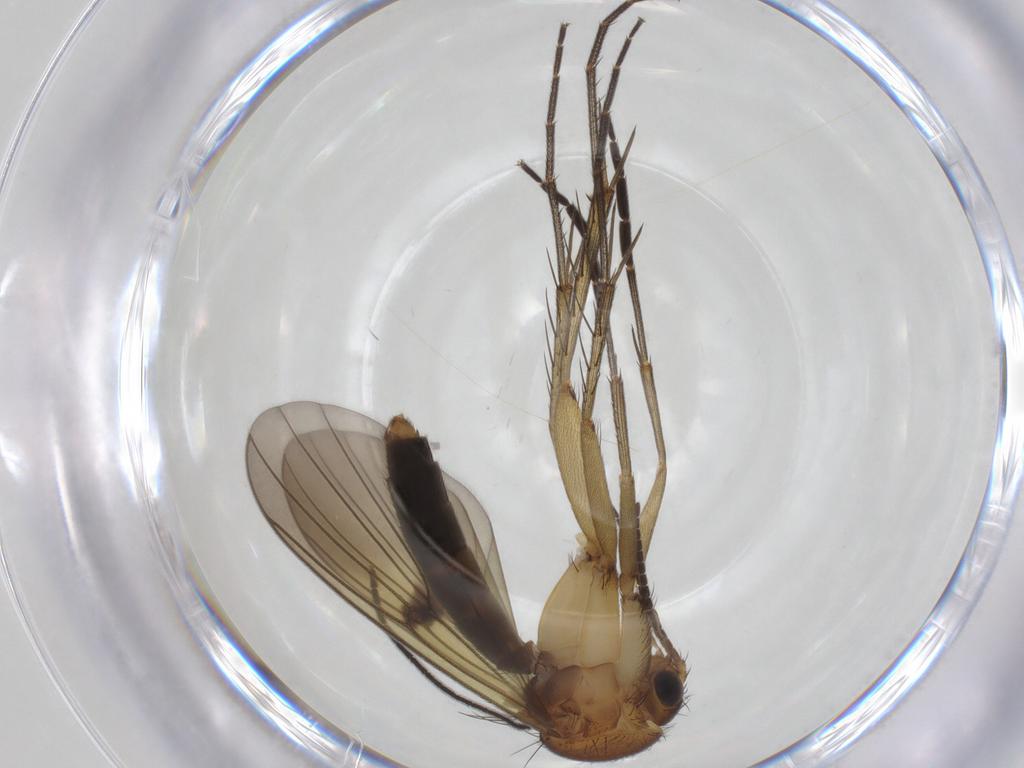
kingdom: Animalia
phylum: Arthropoda
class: Insecta
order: Diptera
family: Mycetophilidae
